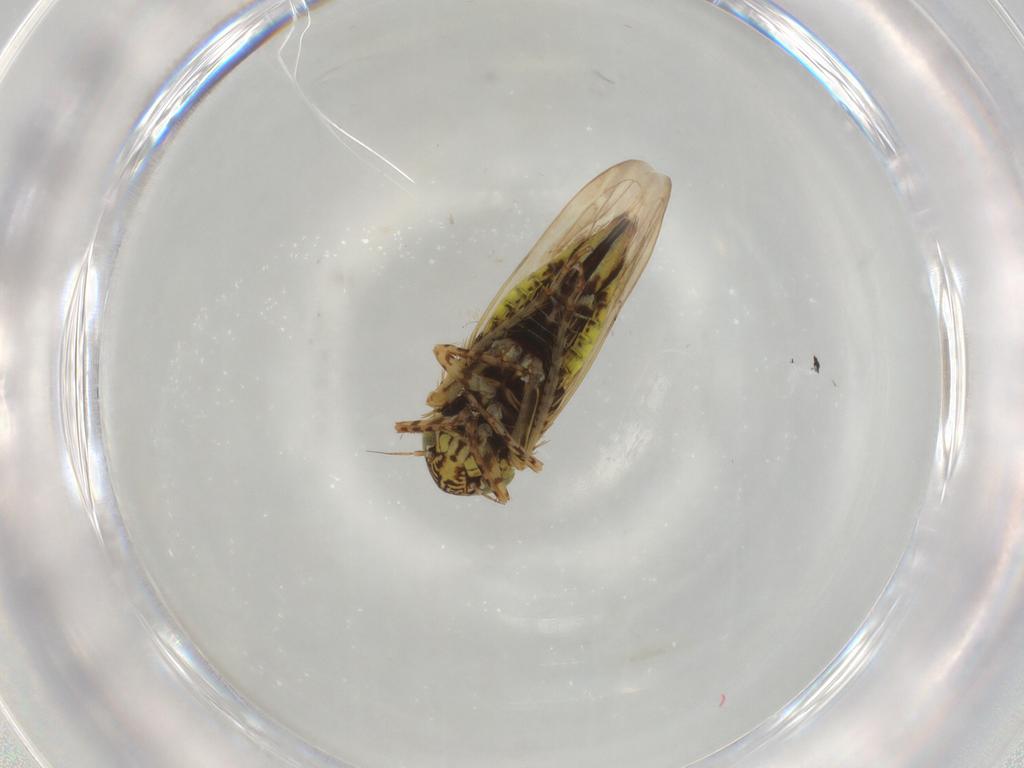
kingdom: Animalia
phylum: Arthropoda
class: Insecta
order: Hemiptera
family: Cicadellidae
